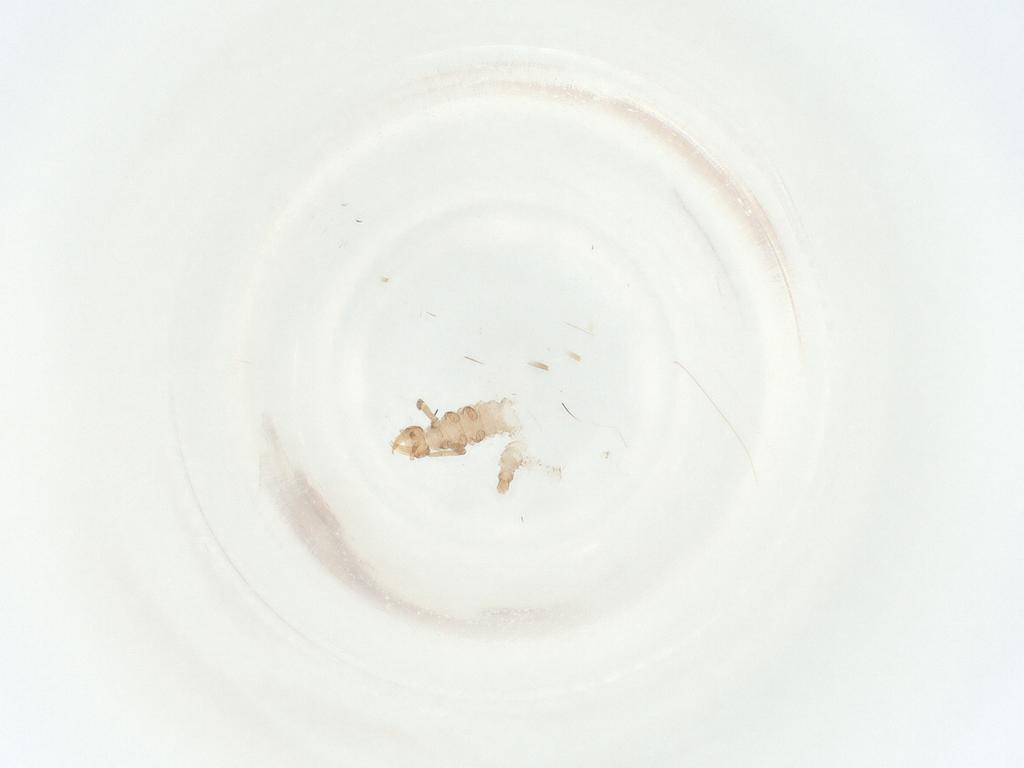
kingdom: Animalia
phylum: Arthropoda
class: Insecta
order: Neuroptera
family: Hemerobiidae
